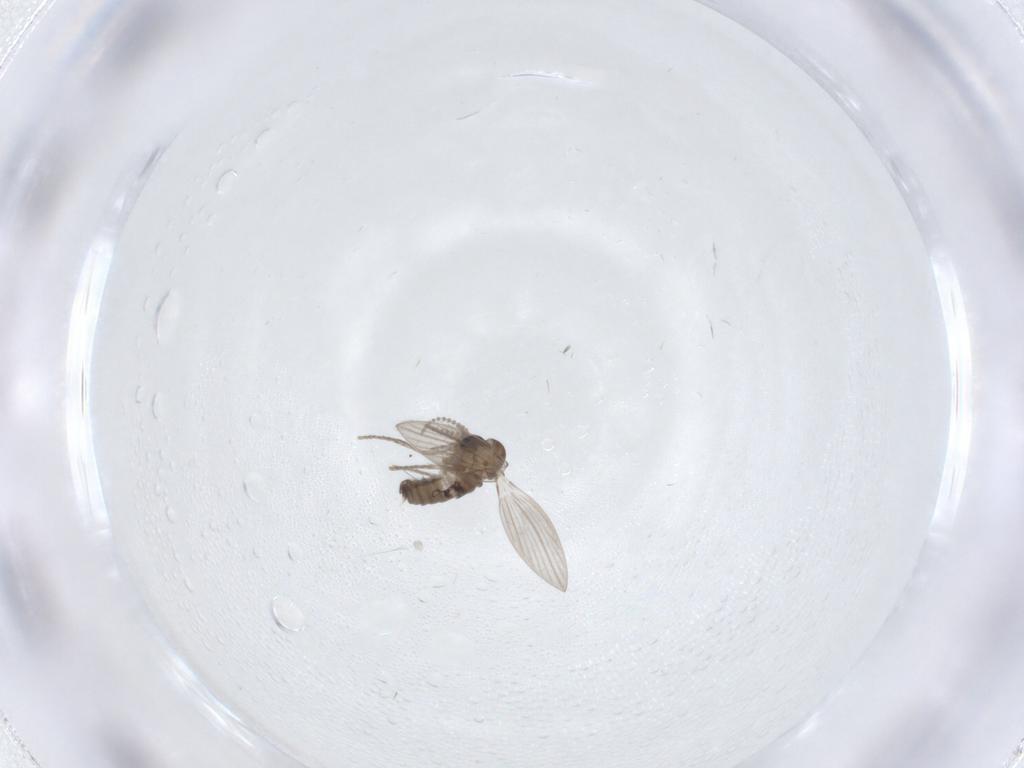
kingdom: Animalia
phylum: Arthropoda
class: Insecta
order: Diptera
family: Psychodidae
